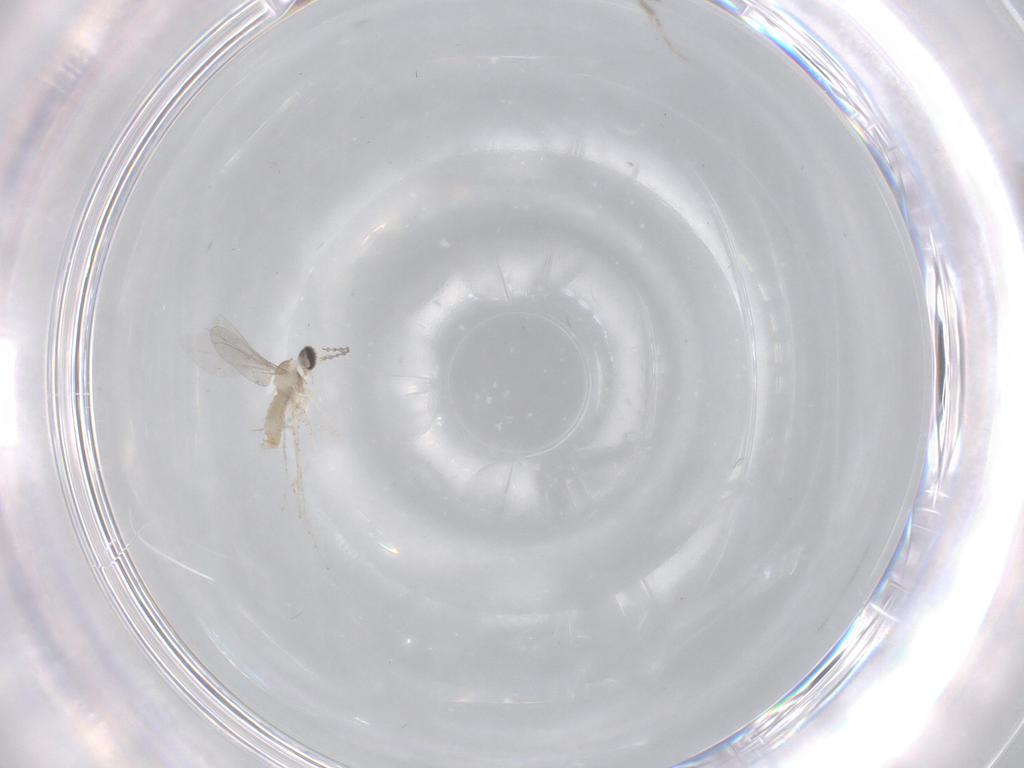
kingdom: Animalia
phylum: Arthropoda
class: Insecta
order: Diptera
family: Cecidomyiidae
